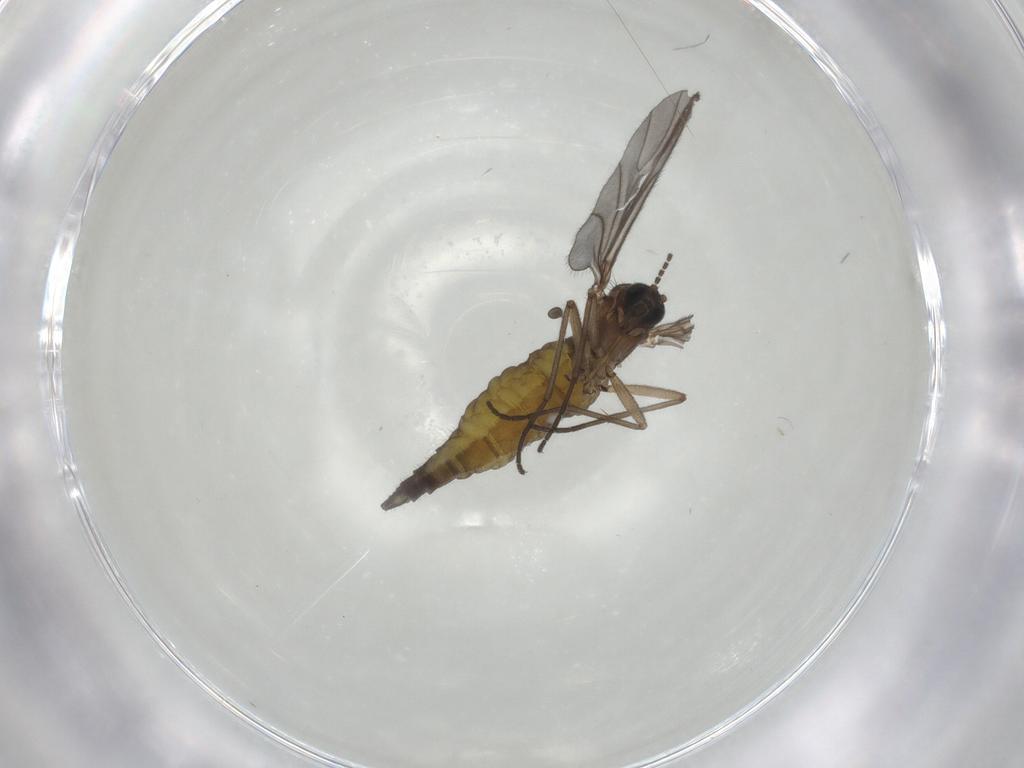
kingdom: Animalia
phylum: Arthropoda
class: Insecta
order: Diptera
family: Sciaridae
